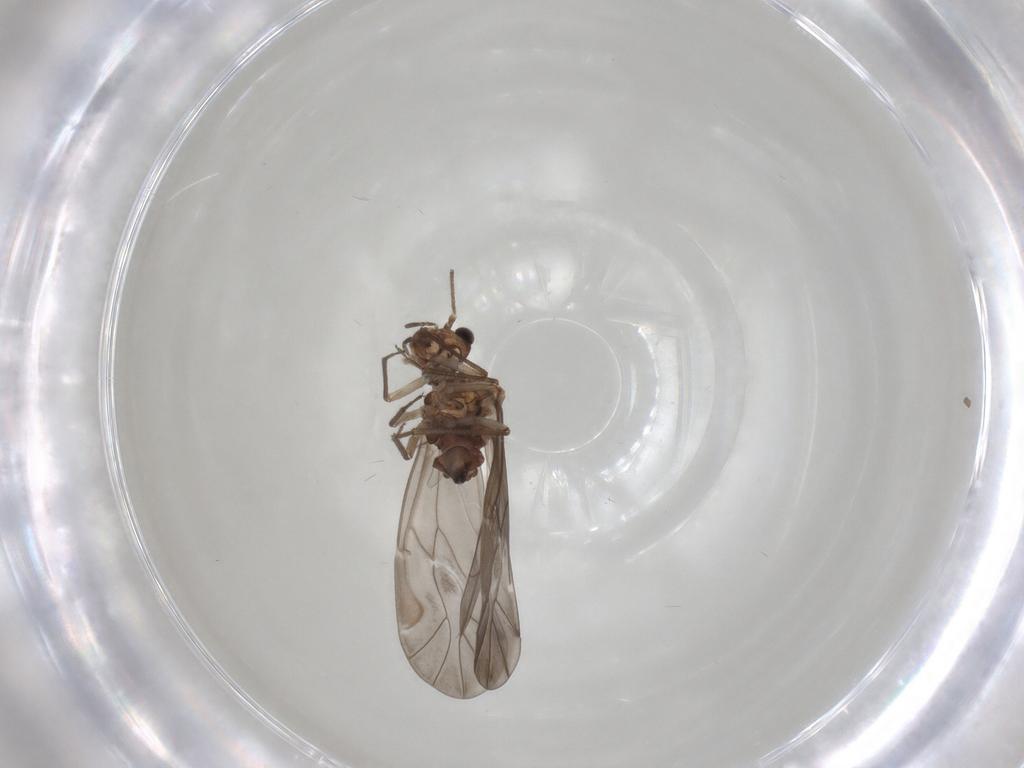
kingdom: Animalia
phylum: Arthropoda
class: Insecta
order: Psocodea
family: Peripsocidae
